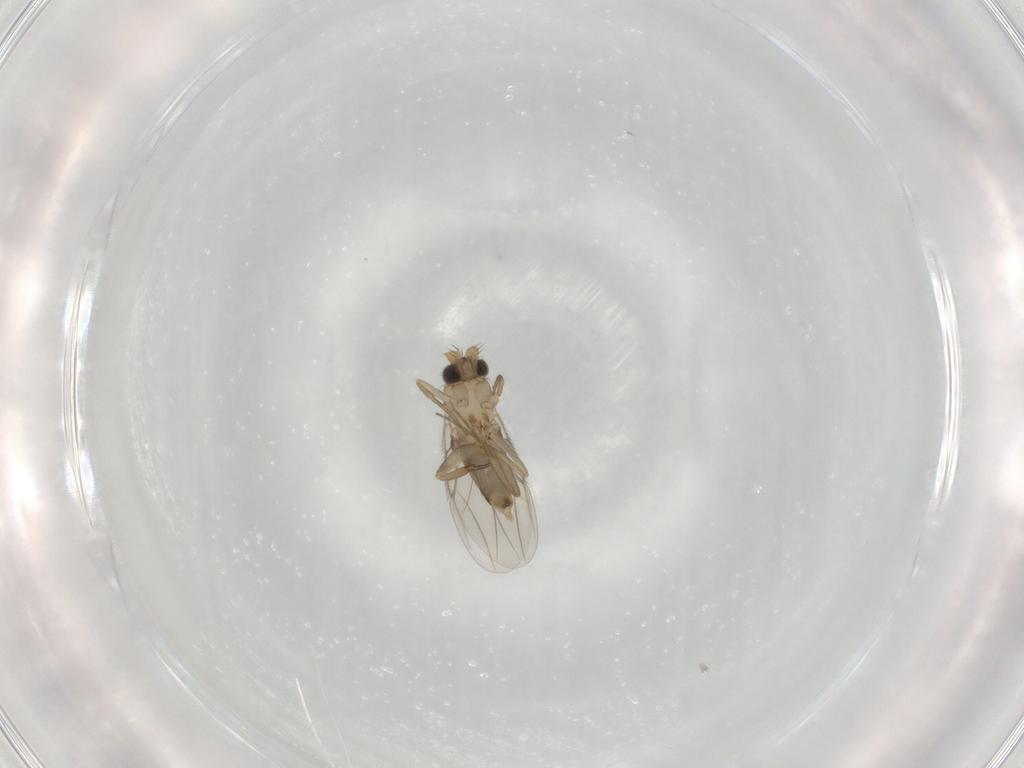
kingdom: Animalia
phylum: Arthropoda
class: Insecta
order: Diptera
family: Phoridae
